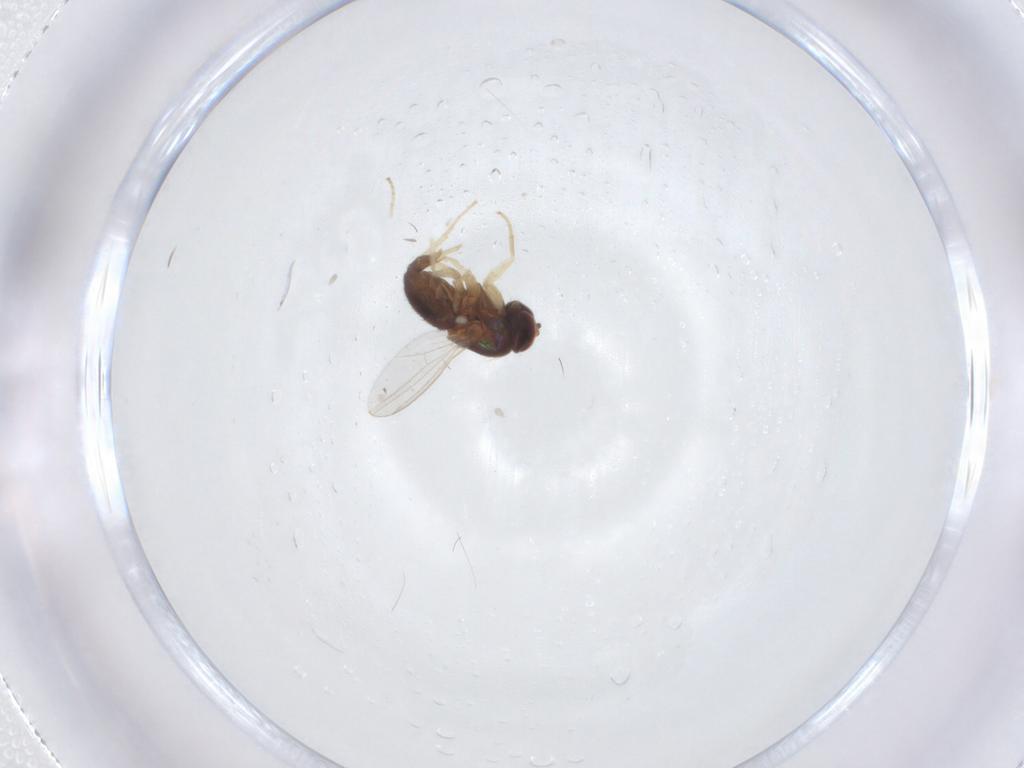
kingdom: Animalia
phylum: Arthropoda
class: Insecta
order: Diptera
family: Dolichopodidae
